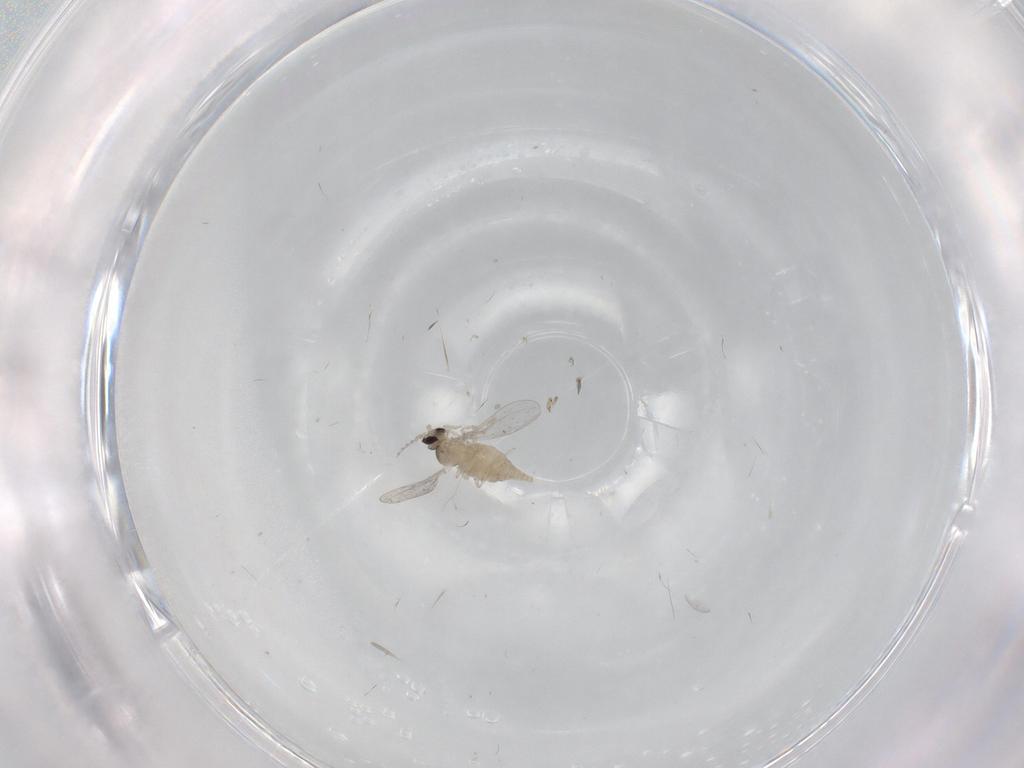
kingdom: Animalia
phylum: Arthropoda
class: Insecta
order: Diptera
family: Cecidomyiidae
